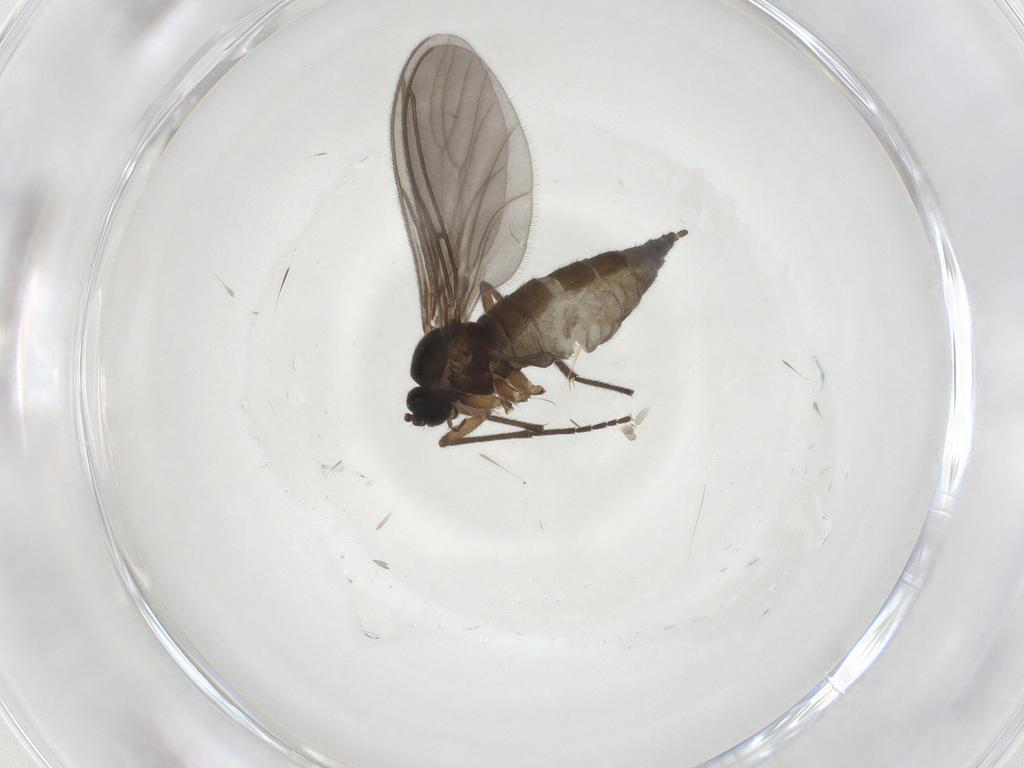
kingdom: Animalia
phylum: Arthropoda
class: Insecta
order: Diptera
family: Sciaridae
